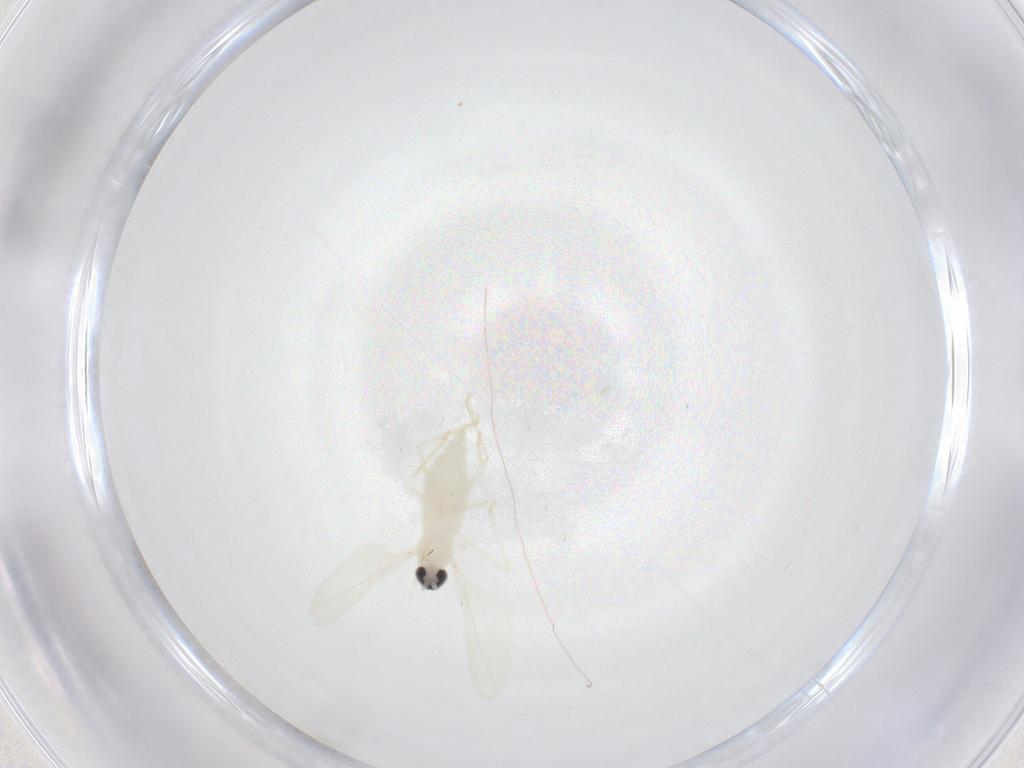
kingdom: Animalia
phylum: Arthropoda
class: Insecta
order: Diptera
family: Cecidomyiidae
